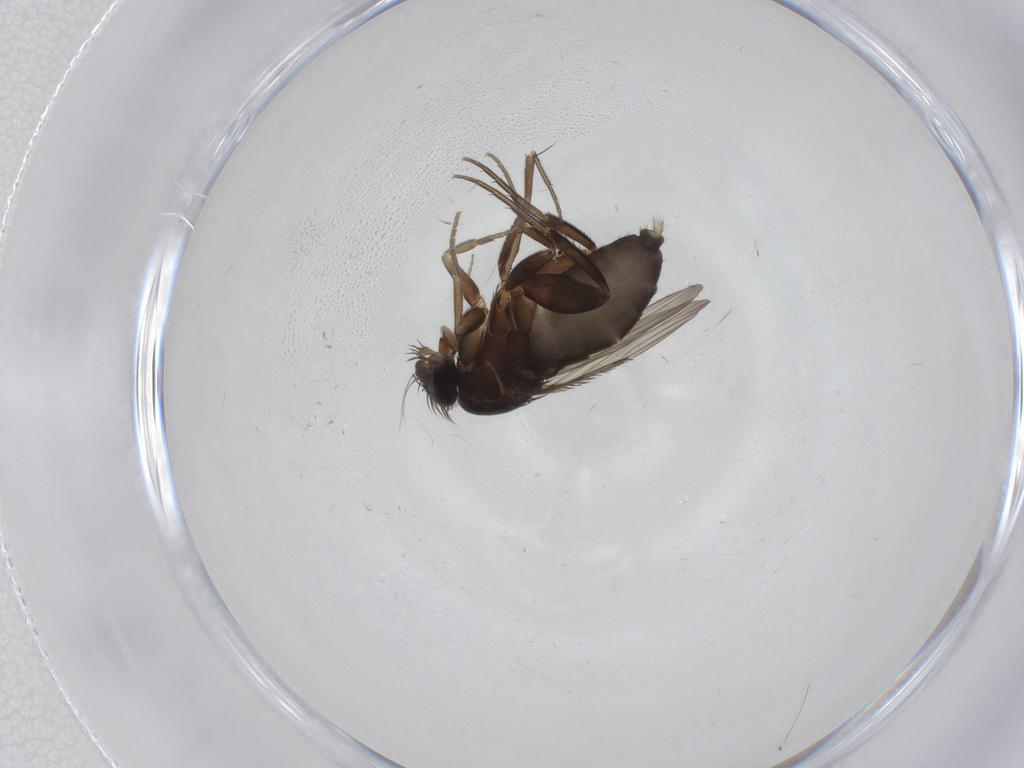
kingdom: Animalia
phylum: Arthropoda
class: Insecta
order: Diptera
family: Phoridae
